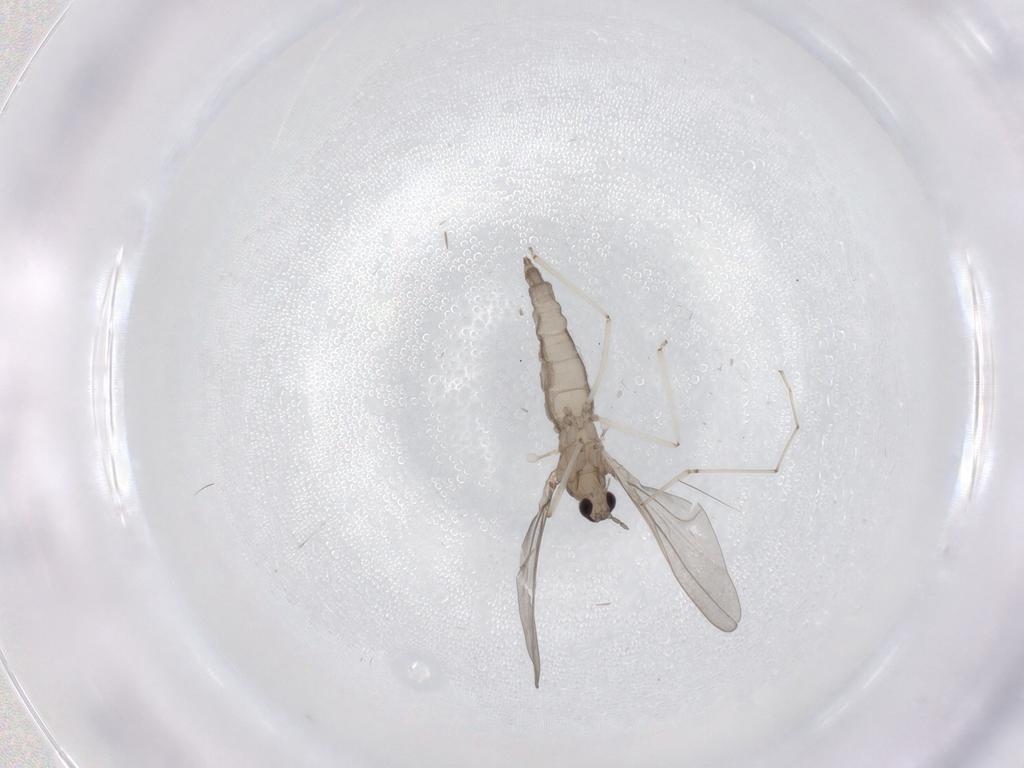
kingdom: Animalia
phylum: Arthropoda
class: Insecta
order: Diptera
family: Cecidomyiidae
